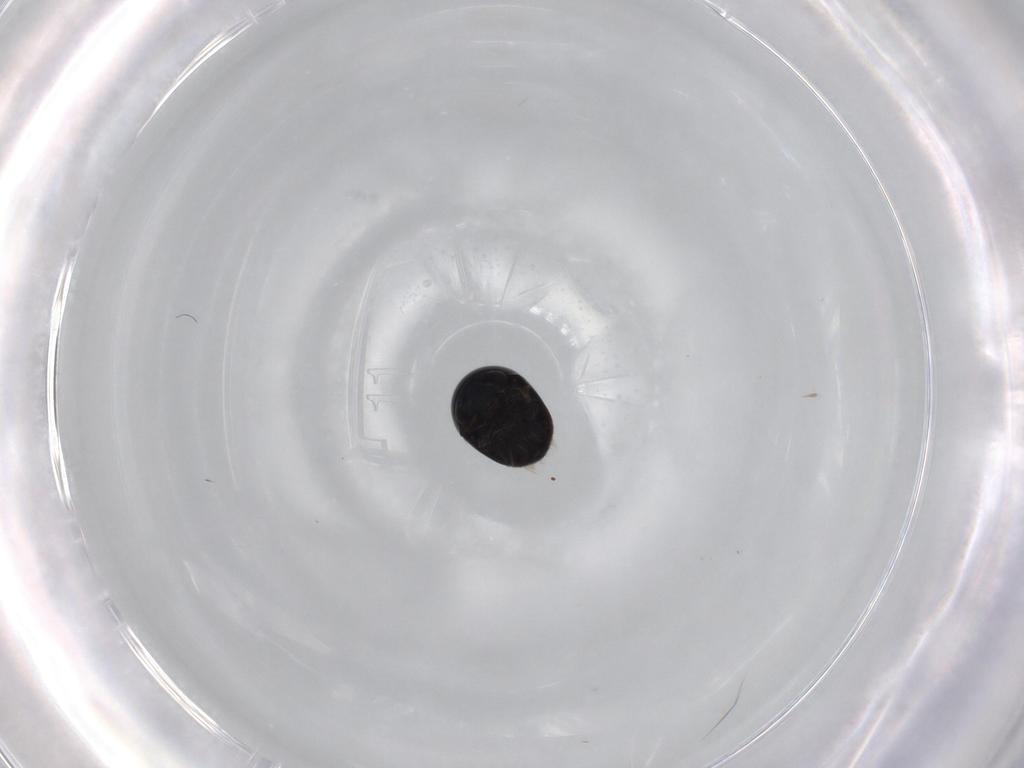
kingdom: Animalia
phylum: Arthropoda
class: Insecta
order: Coleoptera
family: Cybocephalidae
